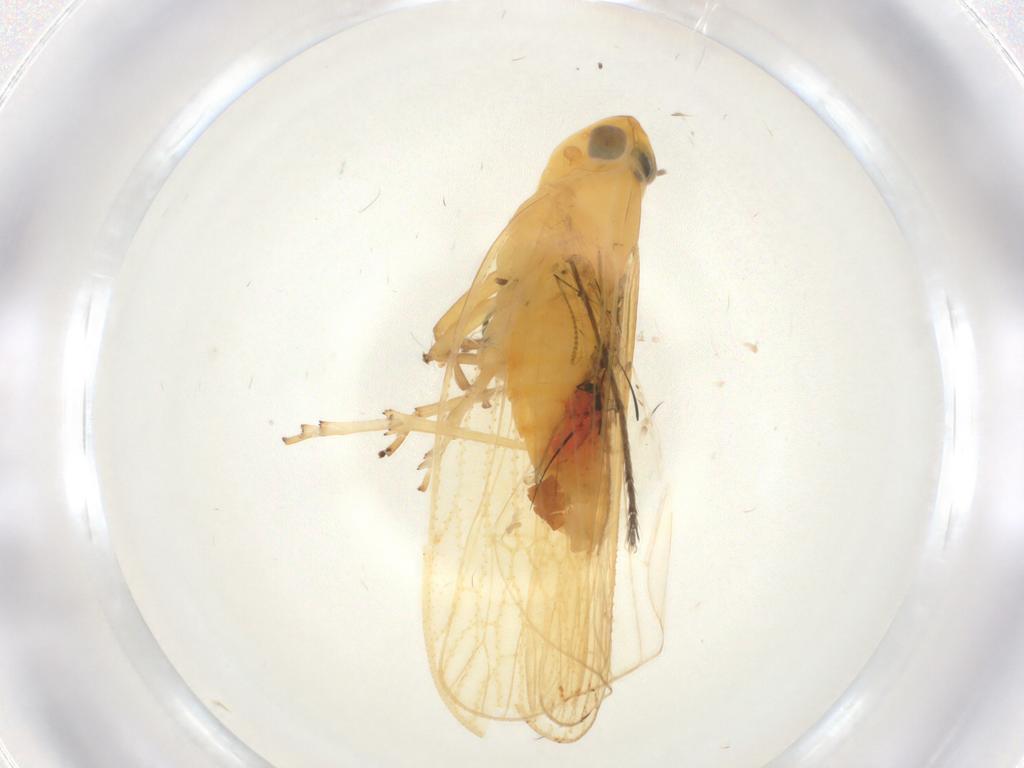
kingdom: Animalia
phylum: Arthropoda
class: Insecta
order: Hemiptera
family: Cixiidae
